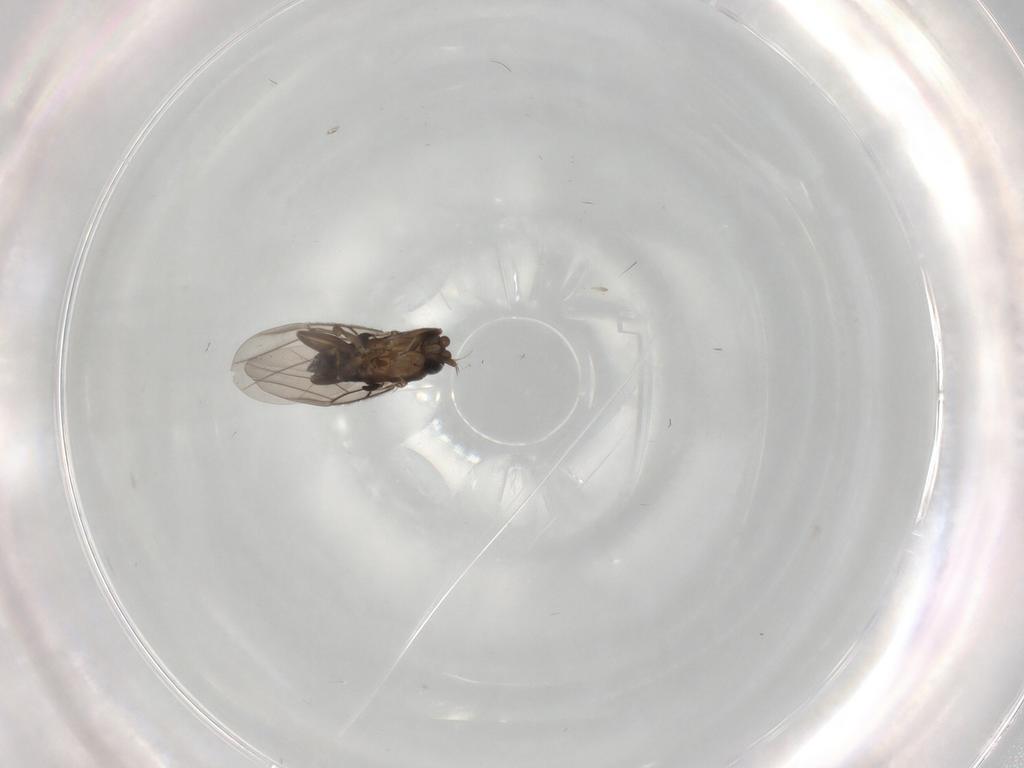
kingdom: Animalia
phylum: Arthropoda
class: Insecta
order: Diptera
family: Phoridae
